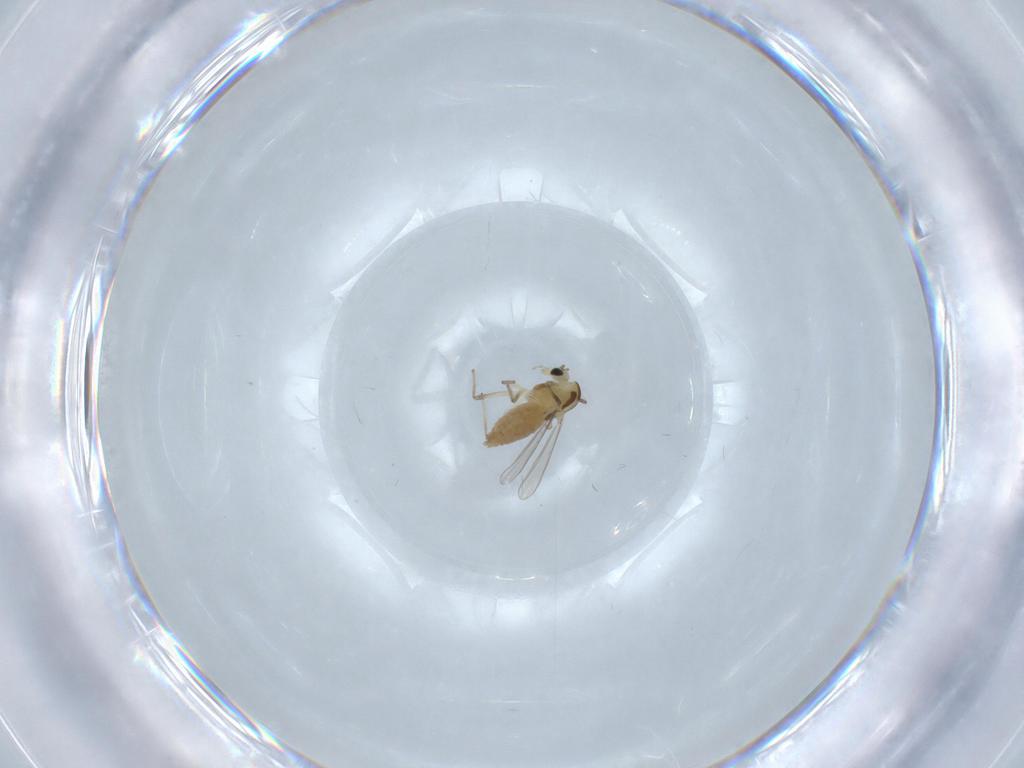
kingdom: Animalia
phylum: Arthropoda
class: Insecta
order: Diptera
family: Chironomidae
